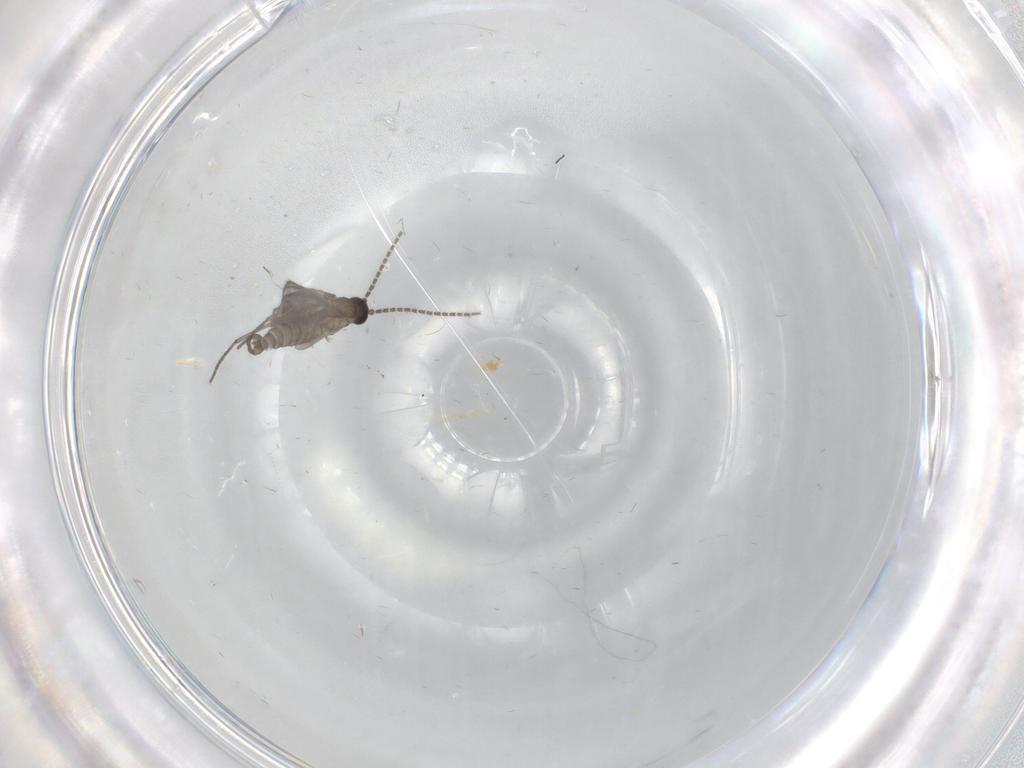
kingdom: Animalia
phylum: Arthropoda
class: Insecta
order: Diptera
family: Sciaridae
